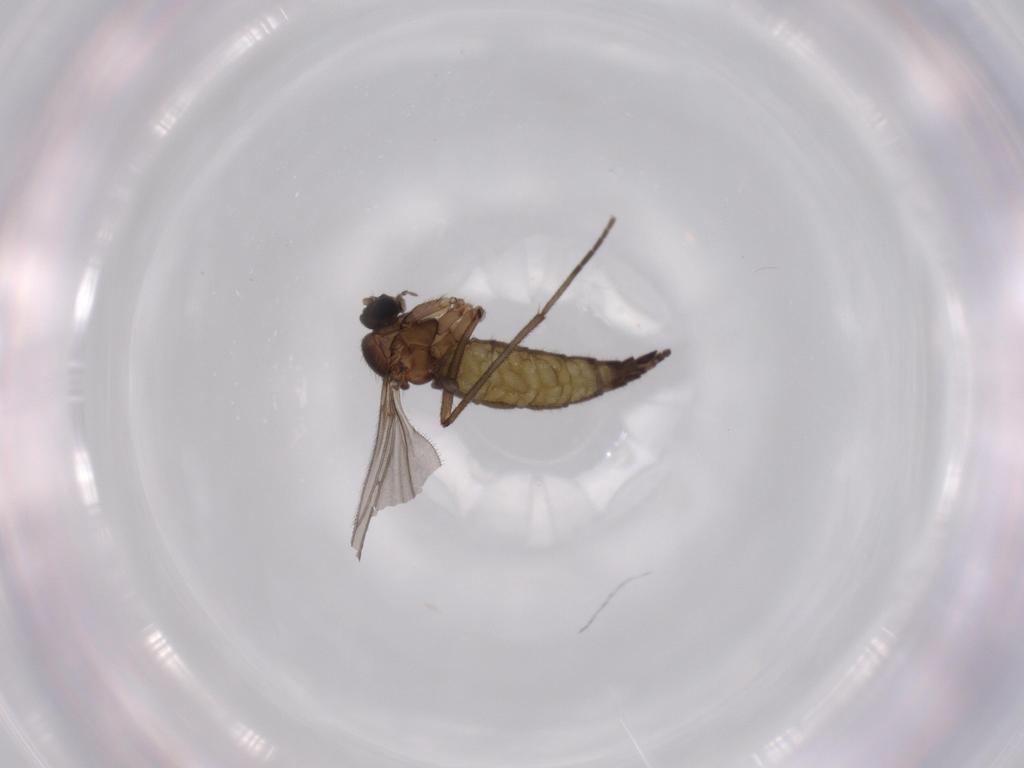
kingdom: Animalia
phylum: Arthropoda
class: Insecta
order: Diptera
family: Sciaridae
